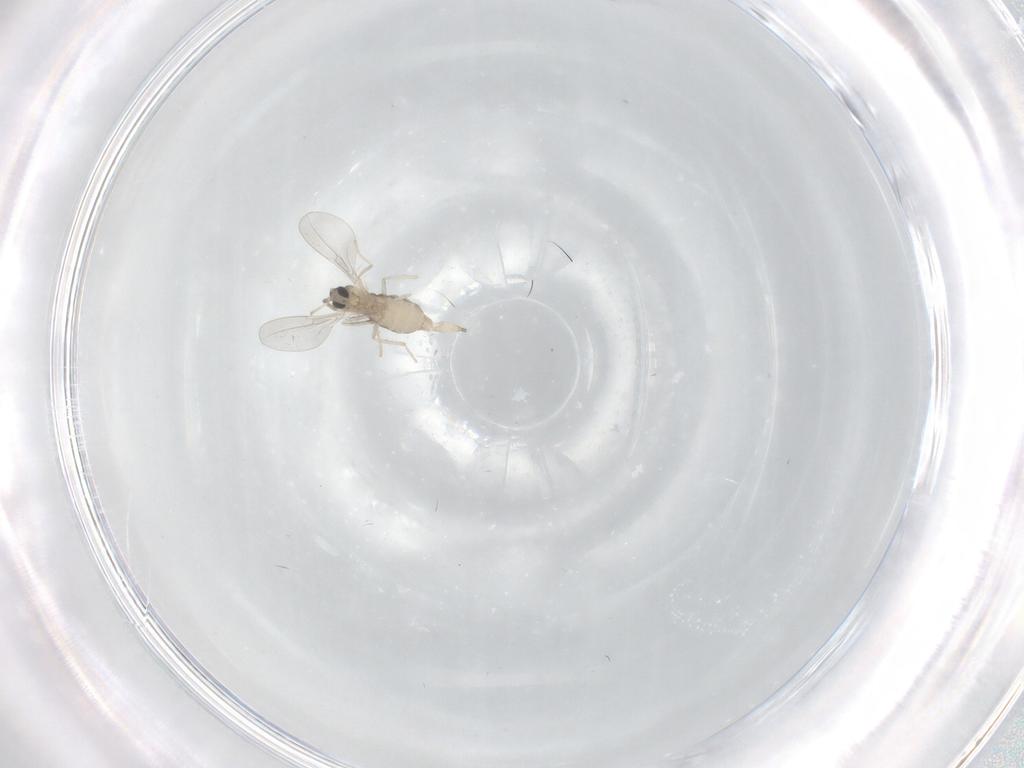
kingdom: Animalia
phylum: Arthropoda
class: Insecta
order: Diptera
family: Cecidomyiidae
